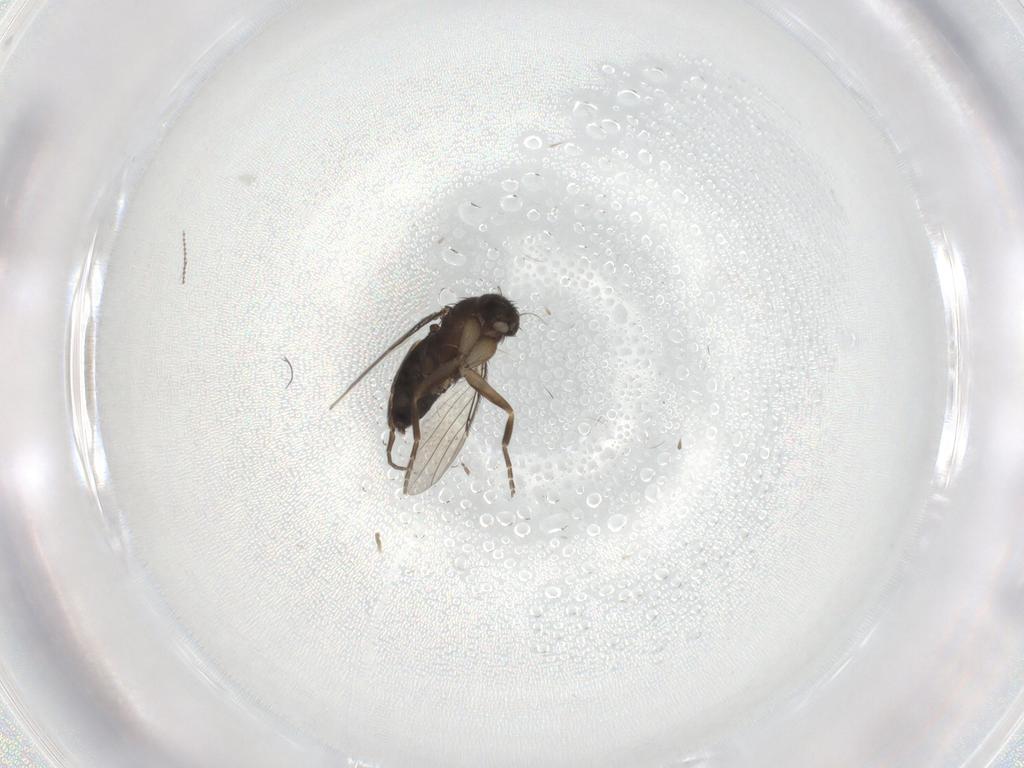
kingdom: Animalia
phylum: Arthropoda
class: Insecta
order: Diptera
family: Phoridae
